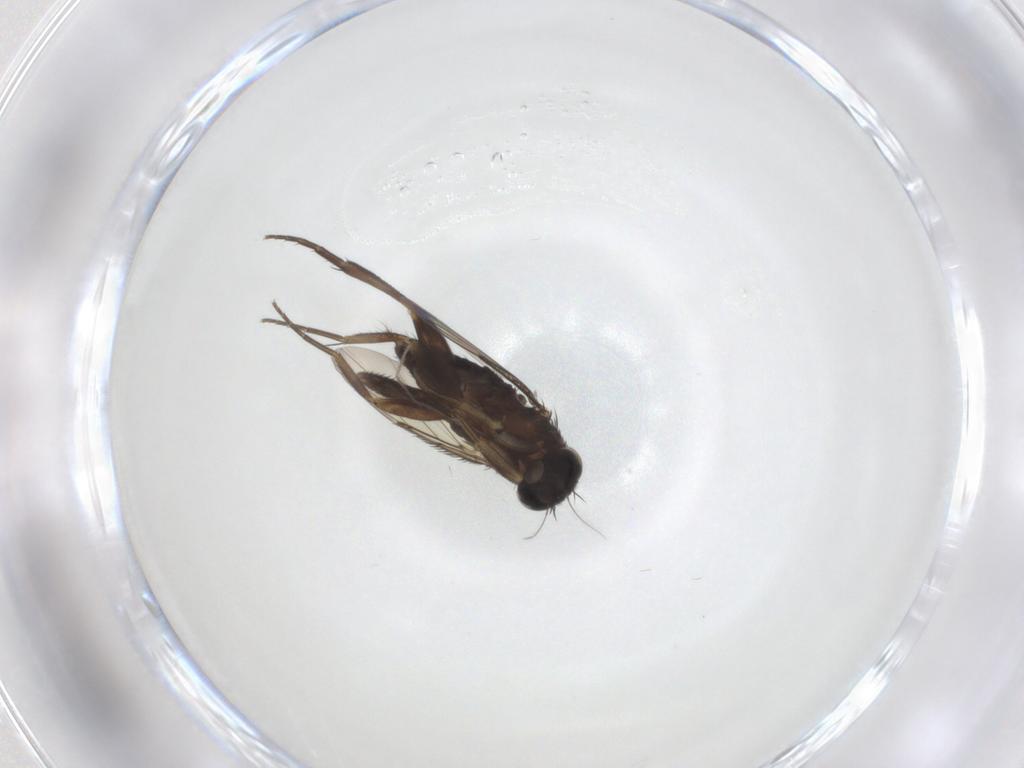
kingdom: Animalia
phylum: Arthropoda
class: Insecta
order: Diptera
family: Phoridae
